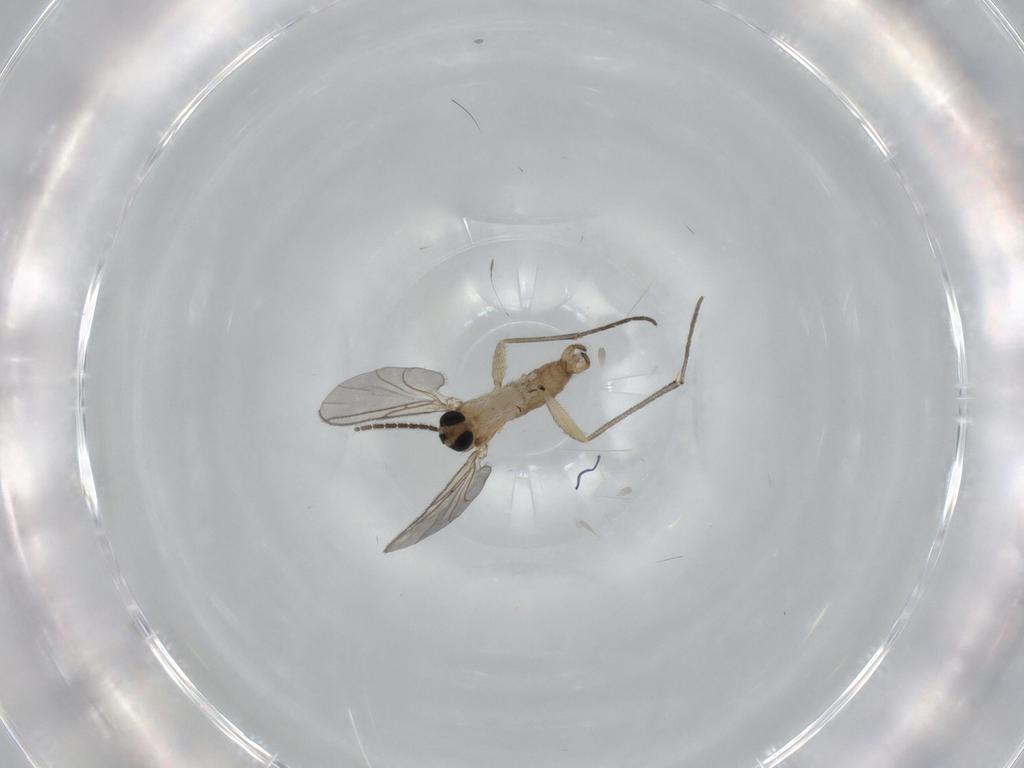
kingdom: Animalia
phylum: Arthropoda
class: Insecta
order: Diptera
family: Sciaridae
